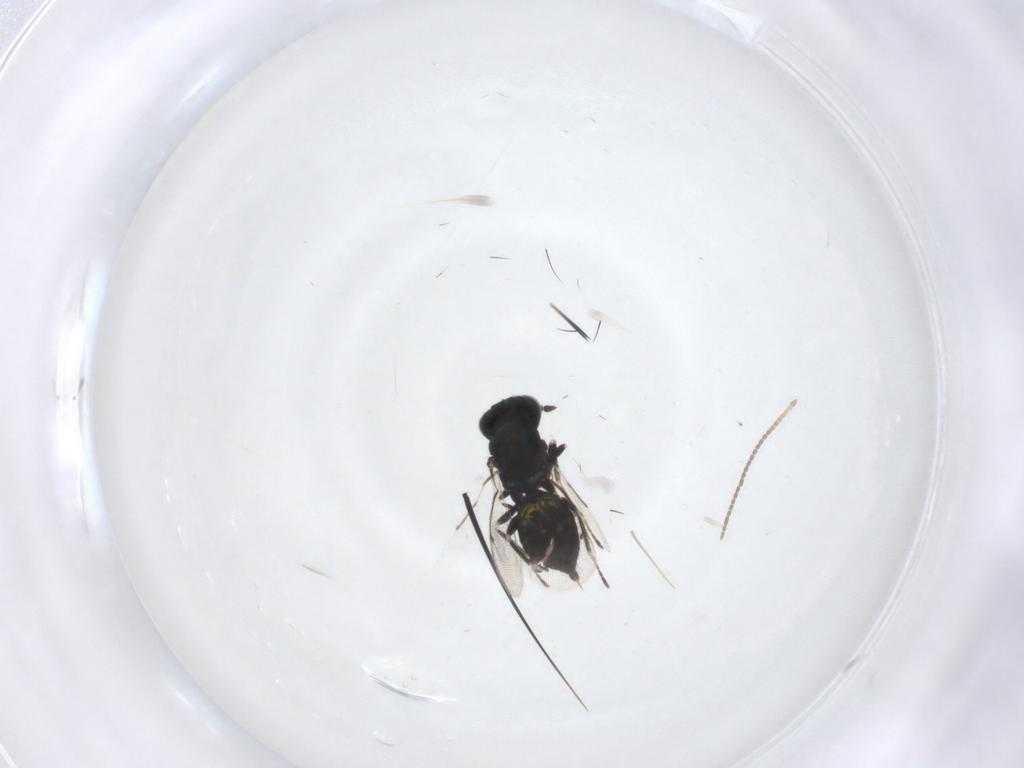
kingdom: Animalia
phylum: Arthropoda
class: Insecta
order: Hymenoptera
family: Eulophidae
